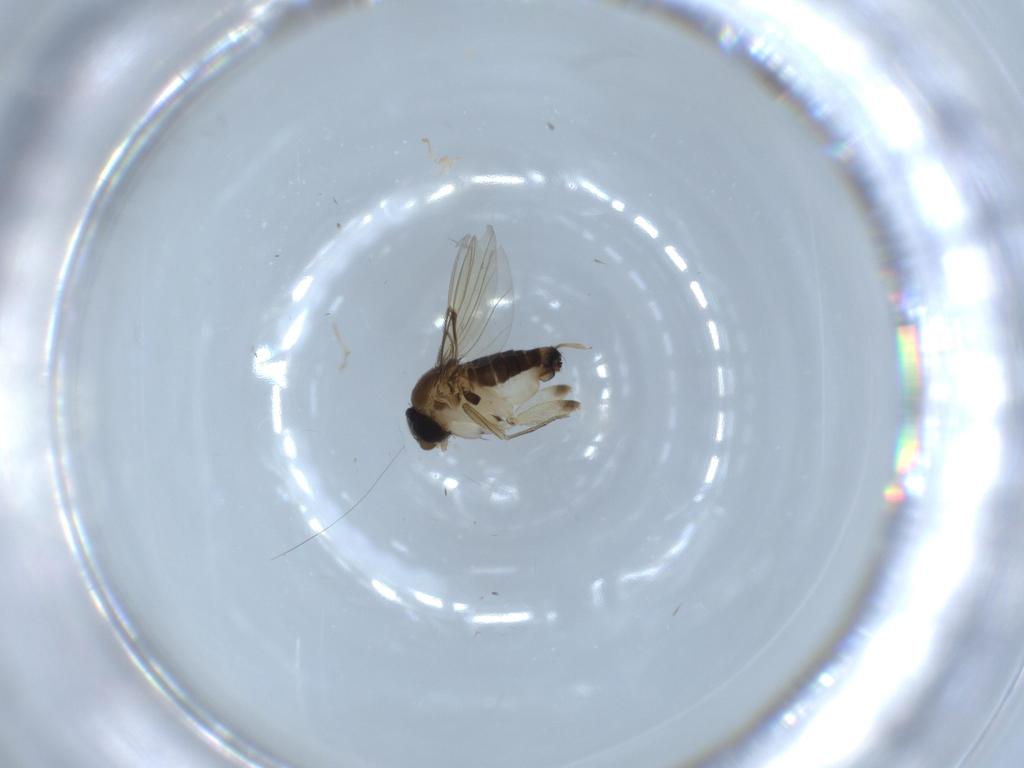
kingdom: Animalia
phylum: Arthropoda
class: Insecta
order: Diptera
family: Phoridae
